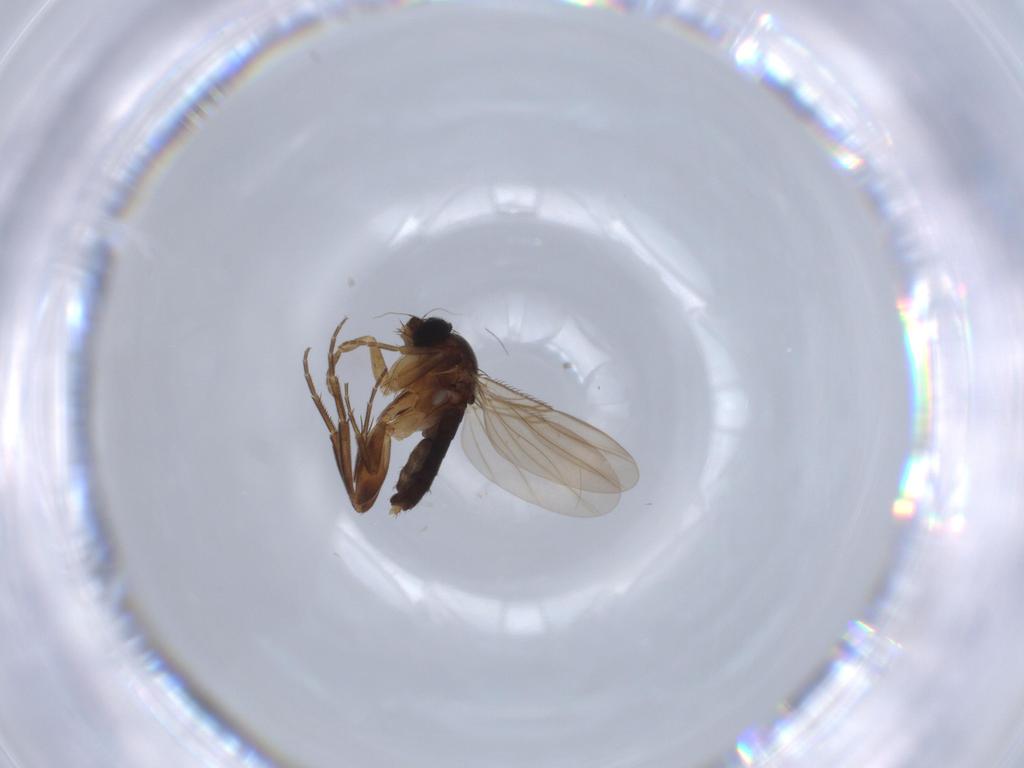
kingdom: Animalia
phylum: Arthropoda
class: Insecta
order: Diptera
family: Phoridae
